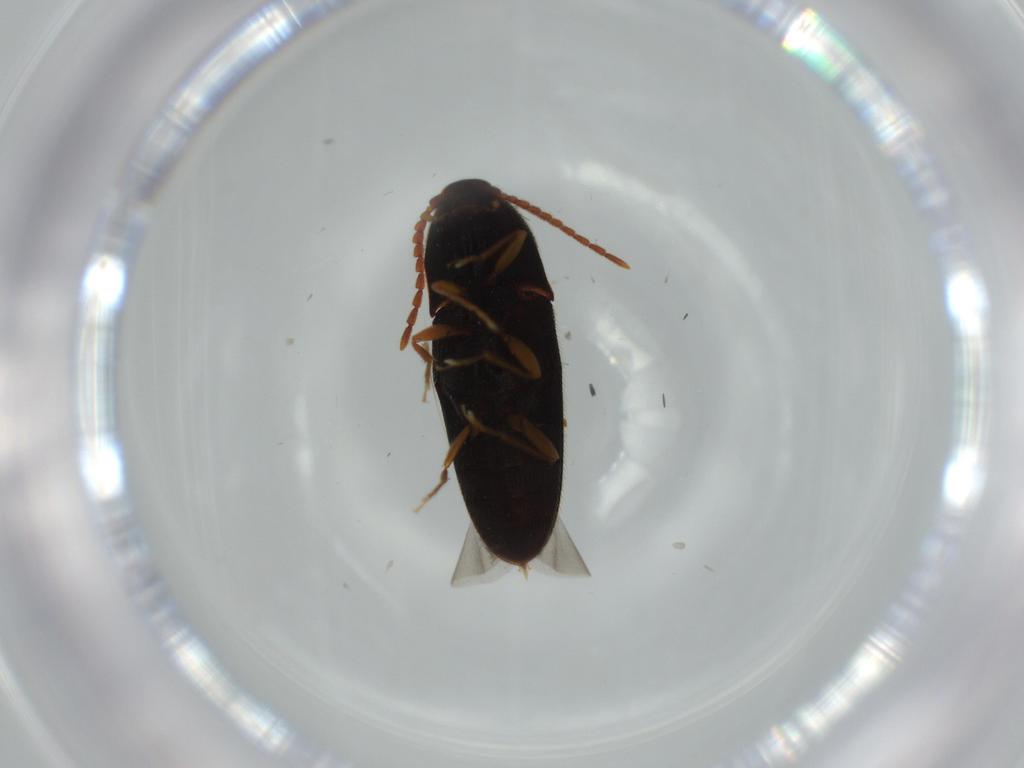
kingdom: Animalia
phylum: Arthropoda
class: Insecta
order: Coleoptera
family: Elateridae
